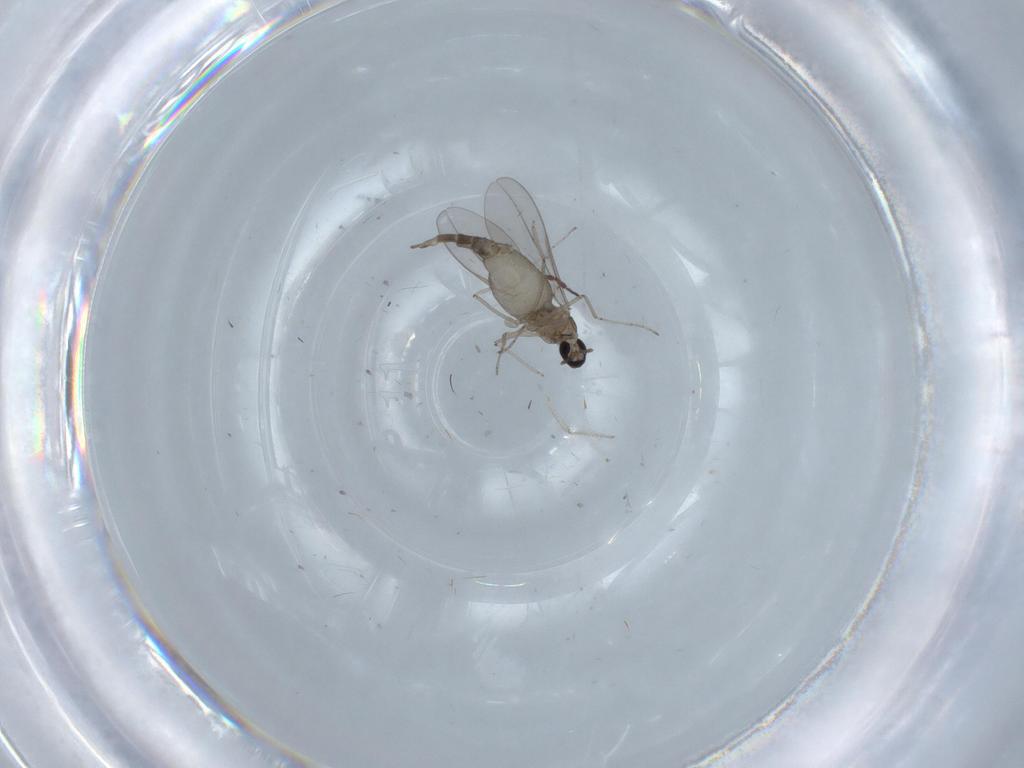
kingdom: Animalia
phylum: Arthropoda
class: Insecta
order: Diptera
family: Cecidomyiidae
